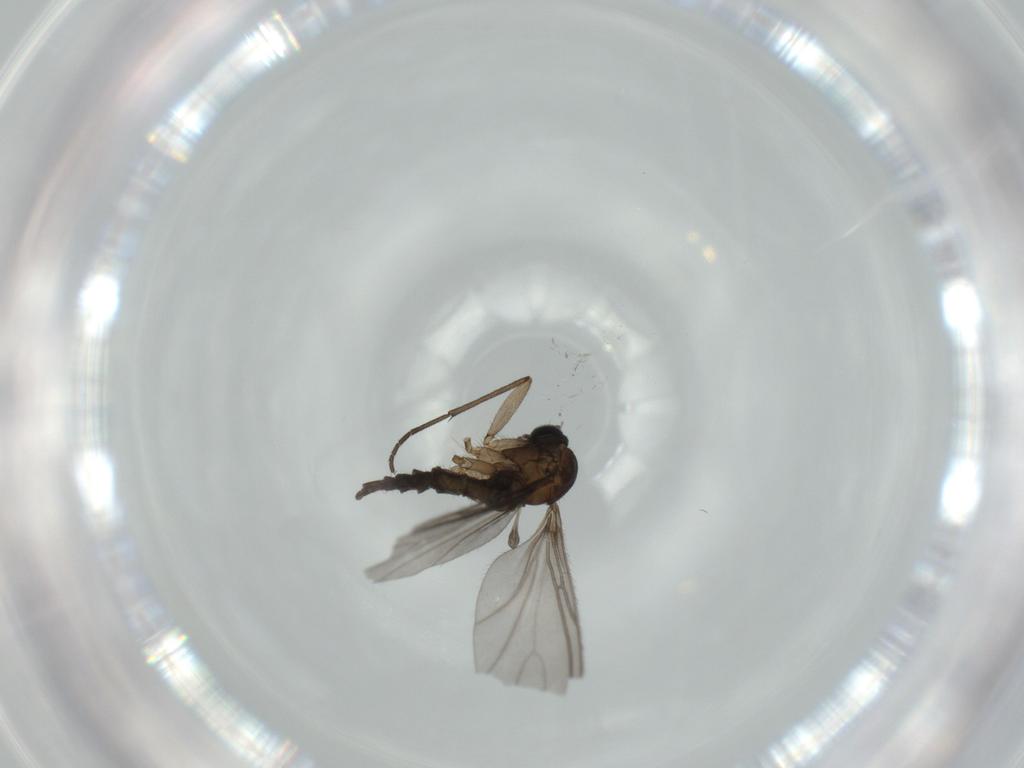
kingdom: Animalia
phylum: Arthropoda
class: Insecta
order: Diptera
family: Sciaridae
